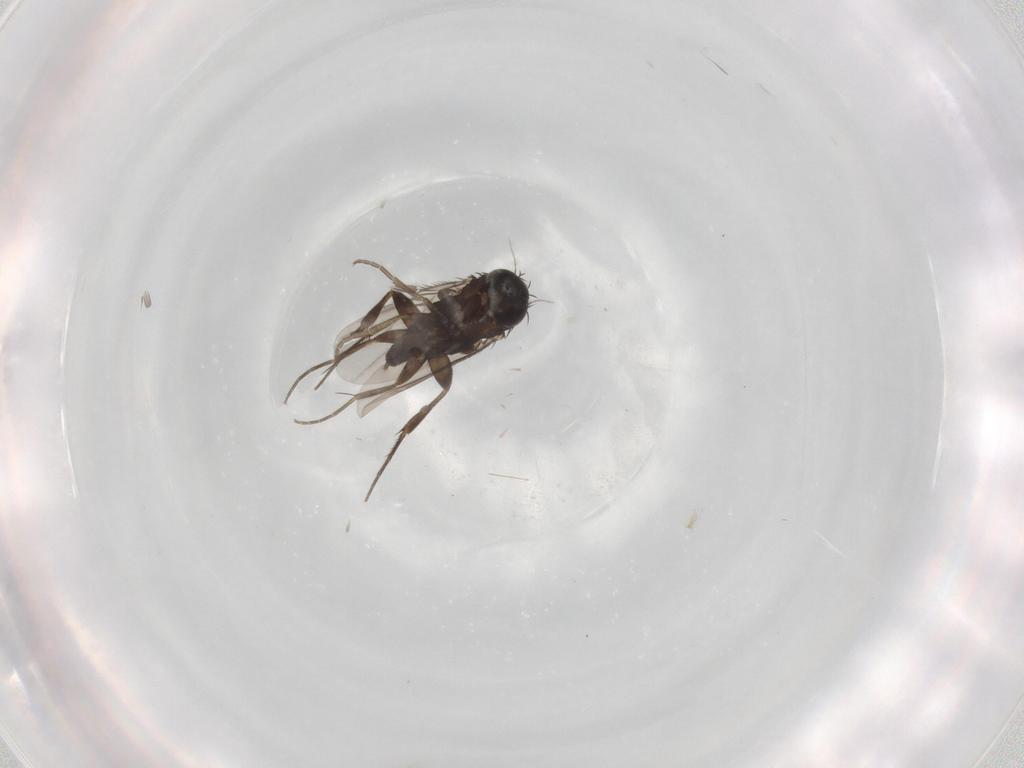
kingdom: Animalia
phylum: Arthropoda
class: Insecta
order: Diptera
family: Phoridae
